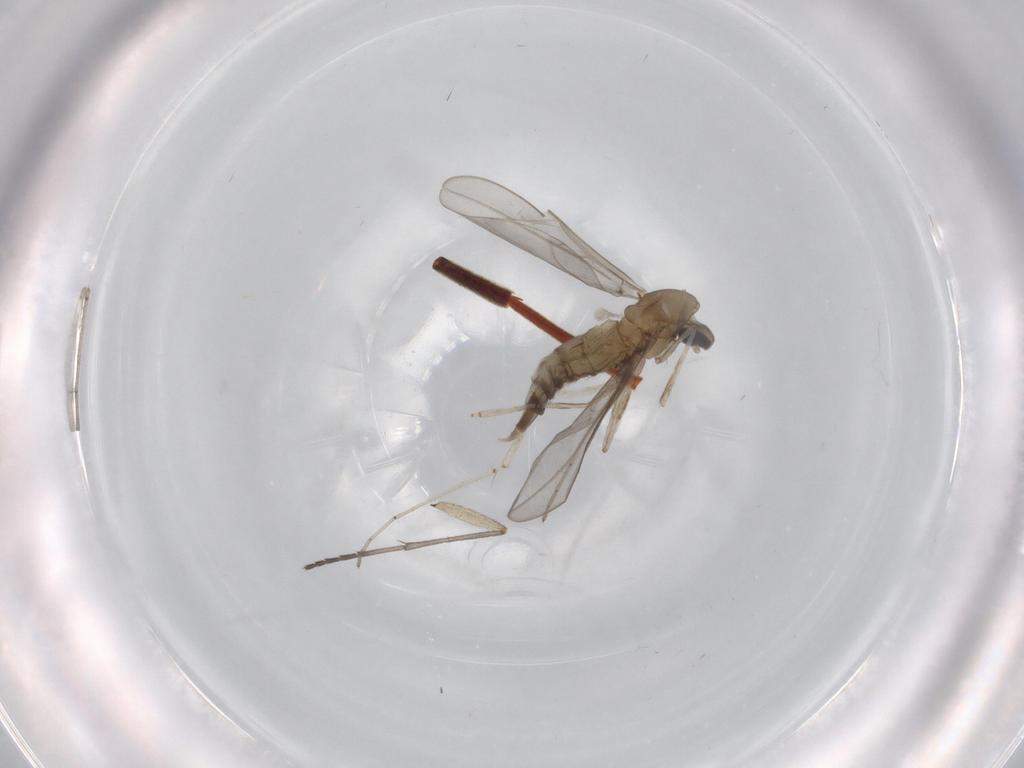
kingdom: Animalia
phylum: Arthropoda
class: Insecta
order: Diptera
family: Cecidomyiidae
